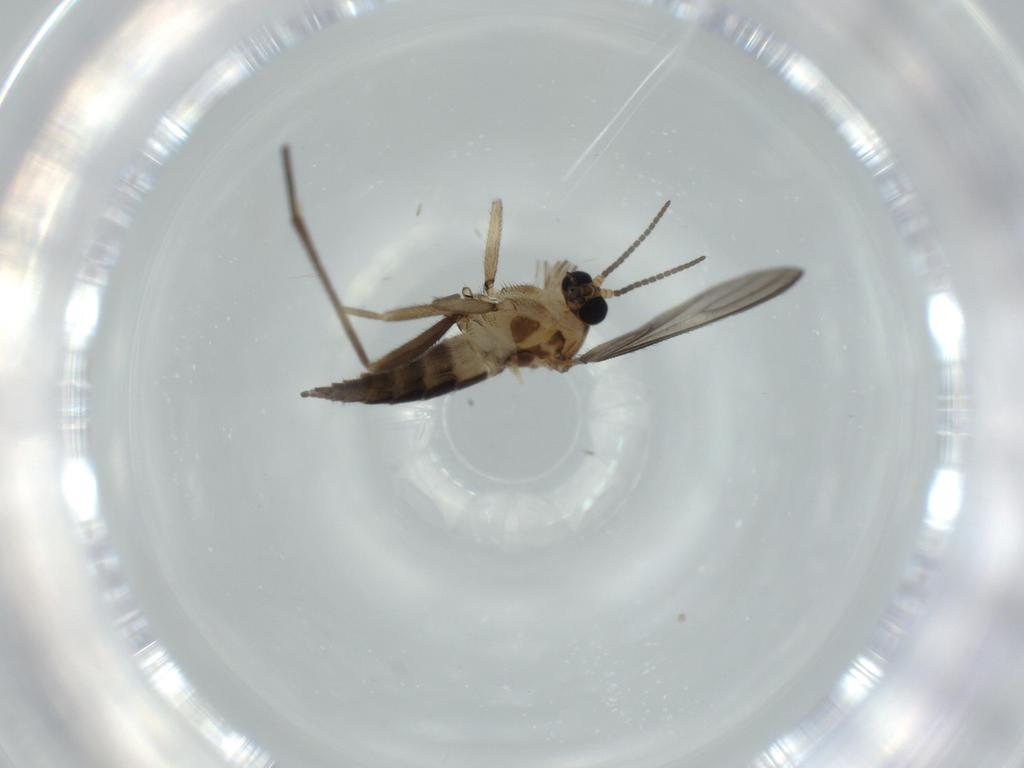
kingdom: Animalia
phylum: Arthropoda
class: Insecta
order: Diptera
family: Sciaridae
